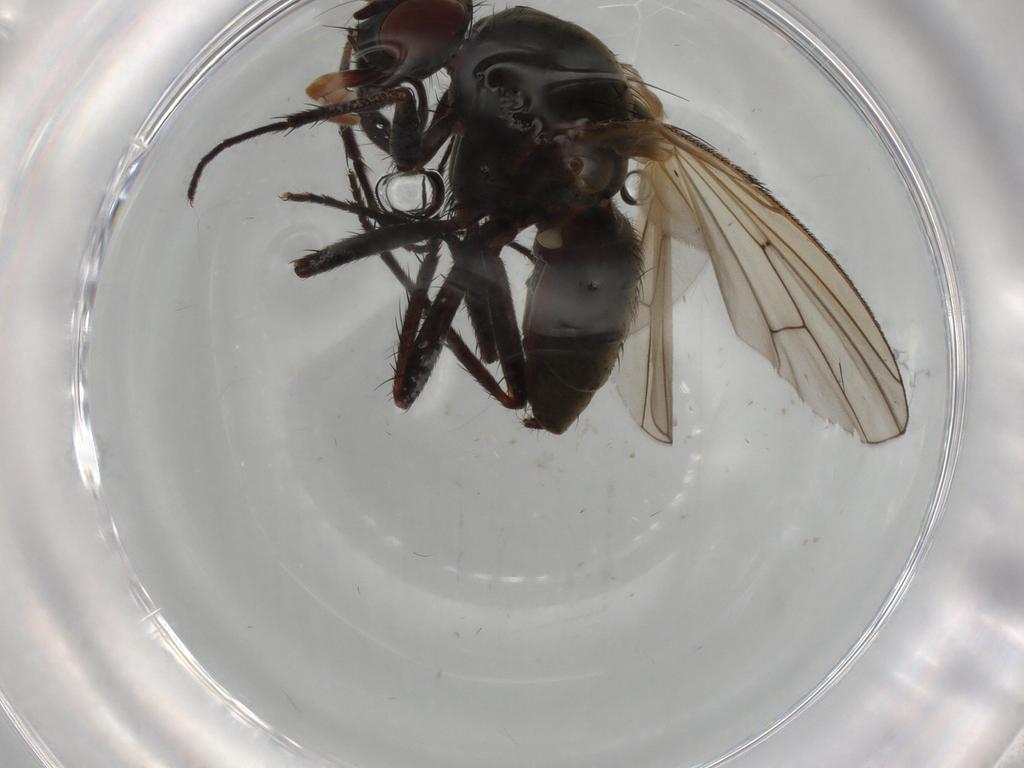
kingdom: Animalia
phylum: Arthropoda
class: Insecta
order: Diptera
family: Anthomyiidae
